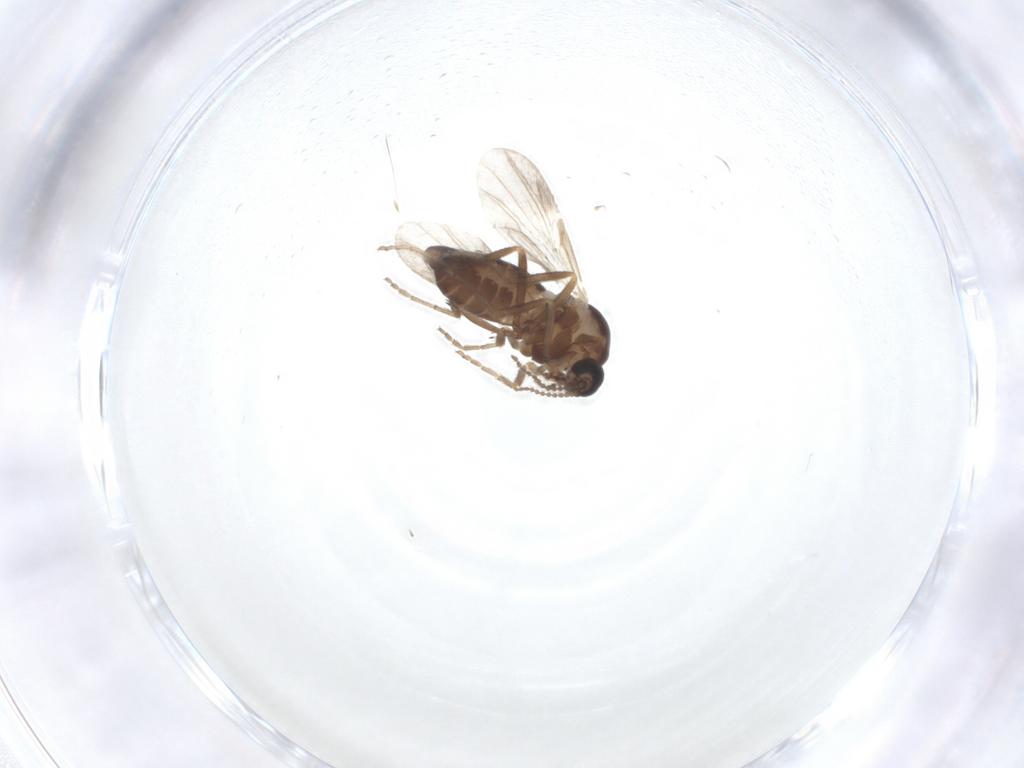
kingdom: Animalia
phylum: Arthropoda
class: Insecta
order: Diptera
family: Ceratopogonidae
